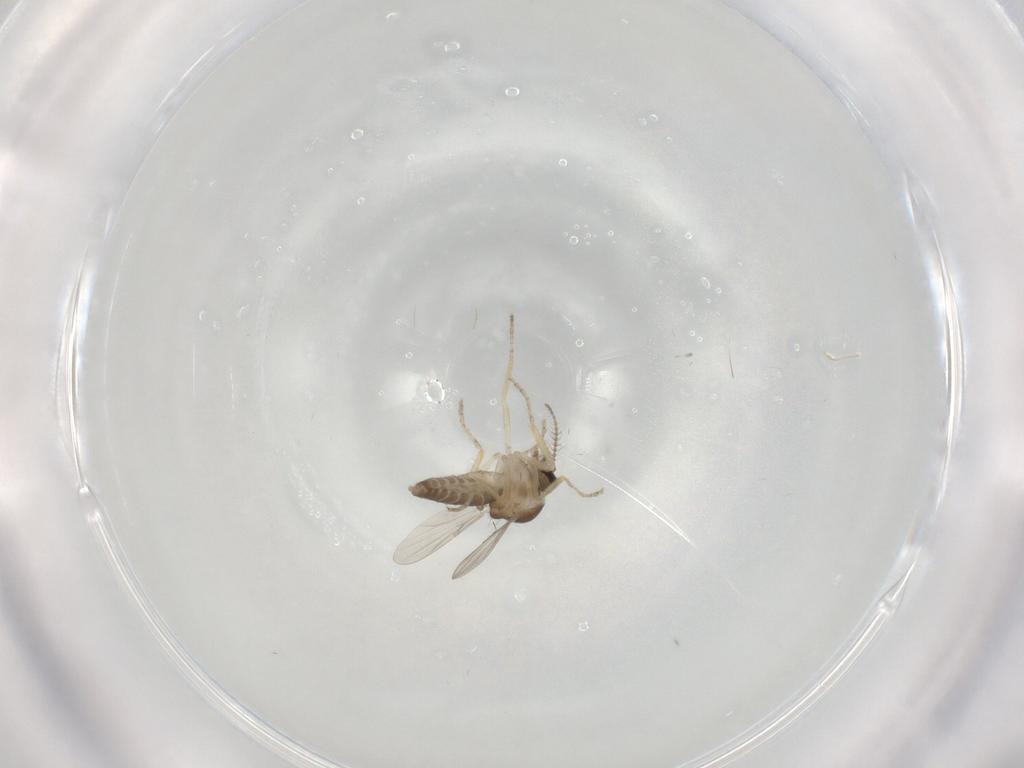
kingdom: Animalia
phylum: Arthropoda
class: Insecta
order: Diptera
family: Ceratopogonidae
